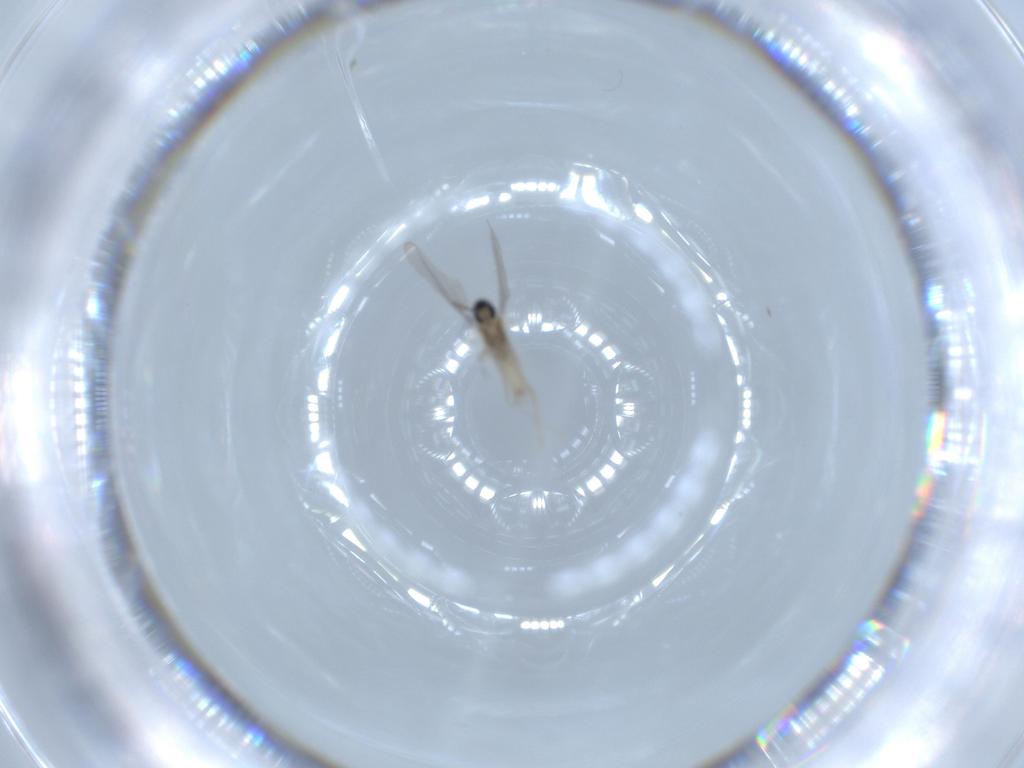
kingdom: Animalia
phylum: Arthropoda
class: Insecta
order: Diptera
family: Ceratopogonidae
